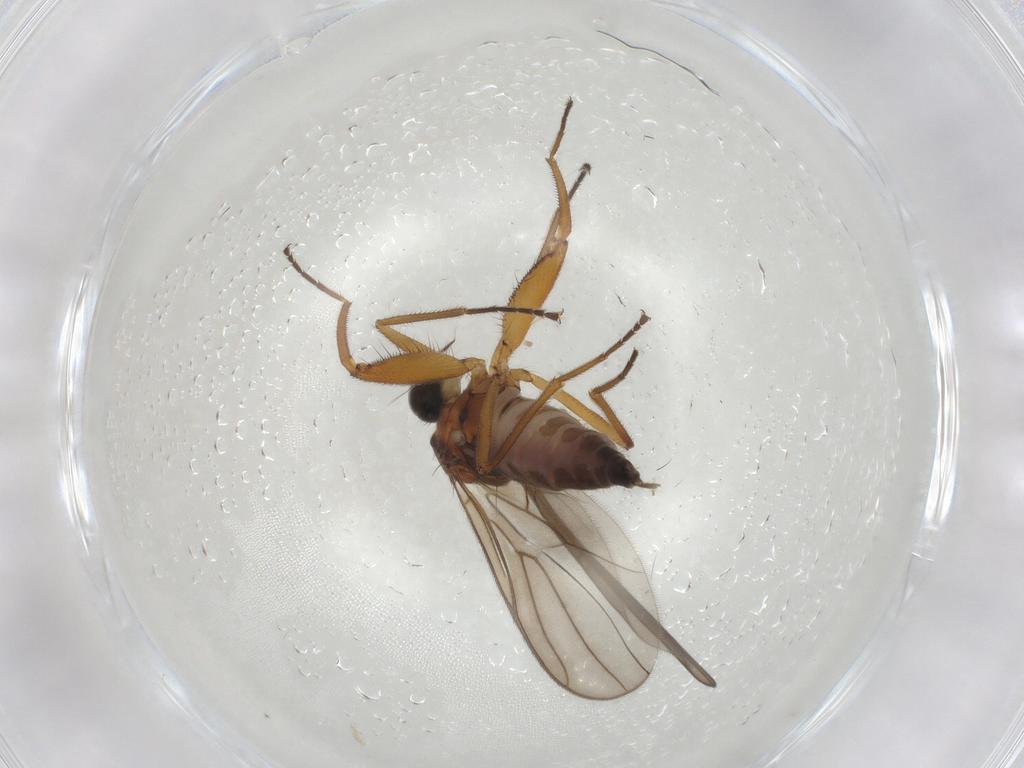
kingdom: Animalia
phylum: Arthropoda
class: Insecta
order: Diptera
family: Hybotidae
